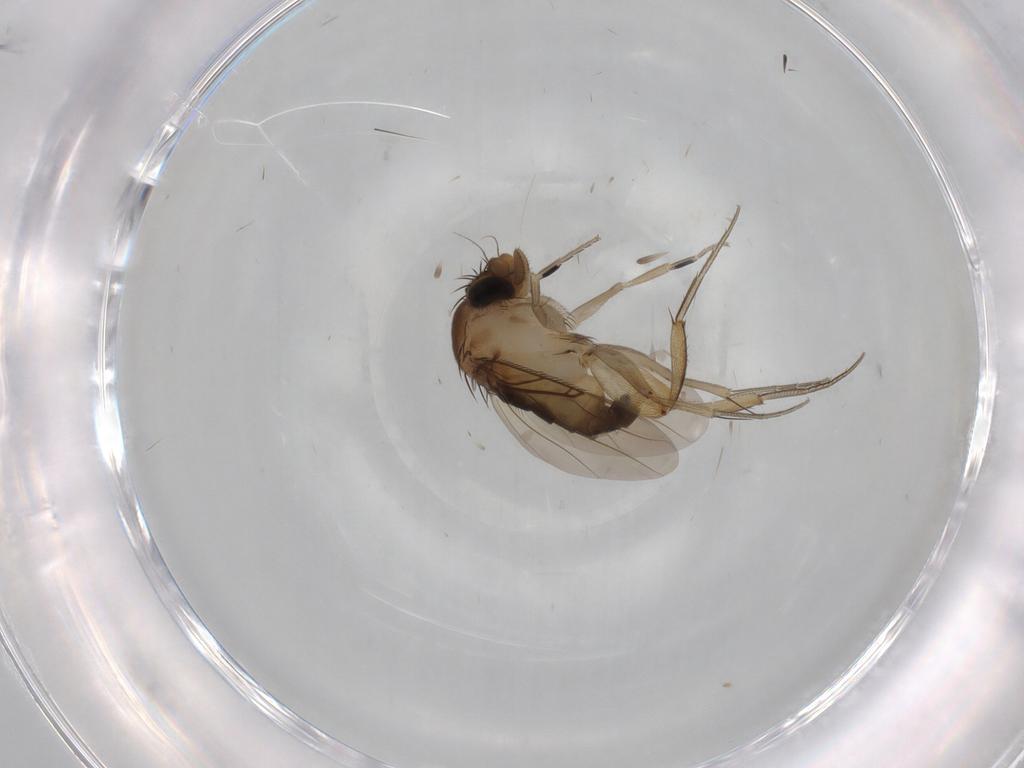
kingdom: Animalia
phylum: Arthropoda
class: Insecta
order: Diptera
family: Phoridae
